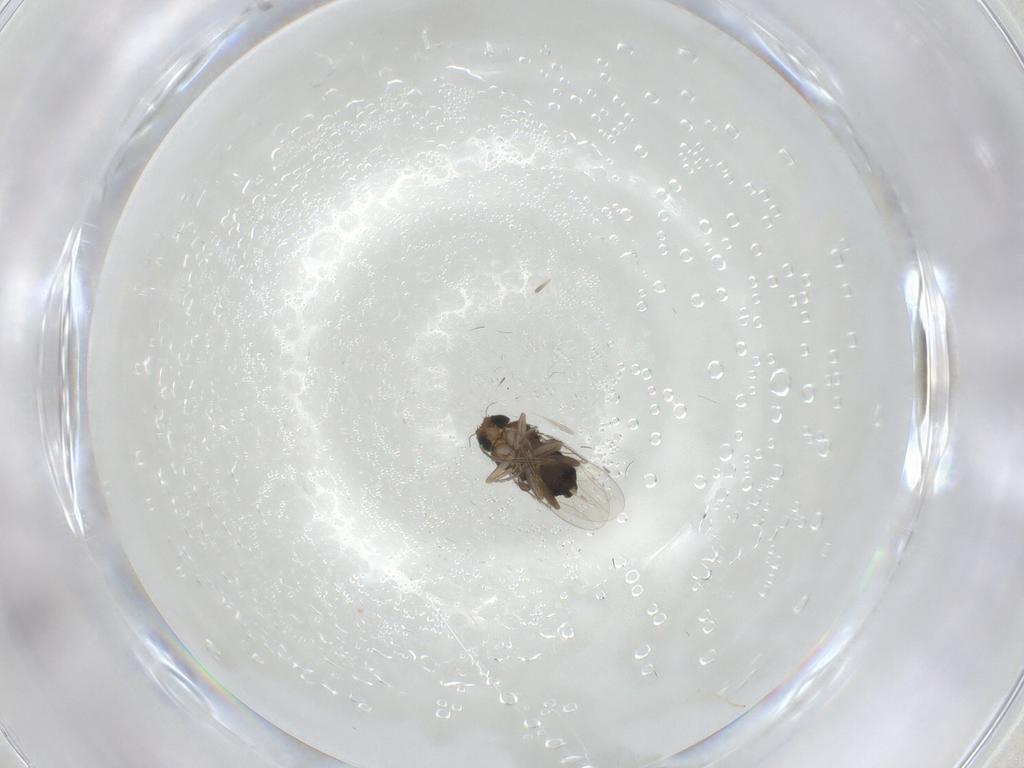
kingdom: Animalia
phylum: Arthropoda
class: Insecta
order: Diptera
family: Phoridae
